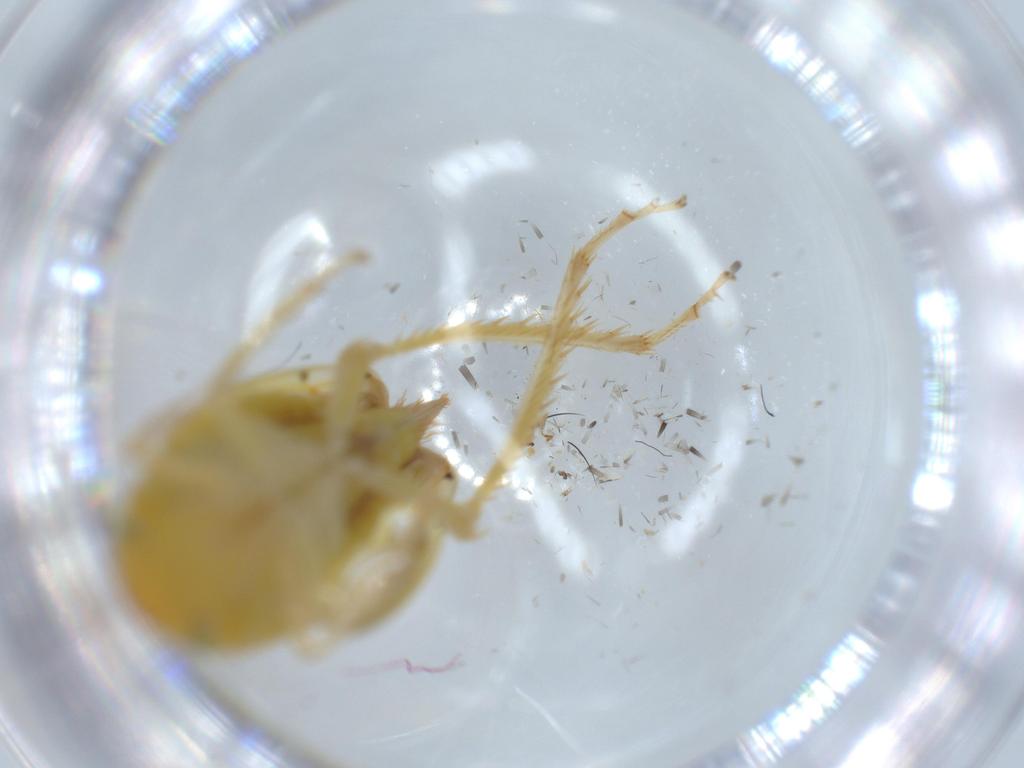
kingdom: Animalia
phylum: Arthropoda
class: Insecta
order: Hemiptera
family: Cicadellidae
